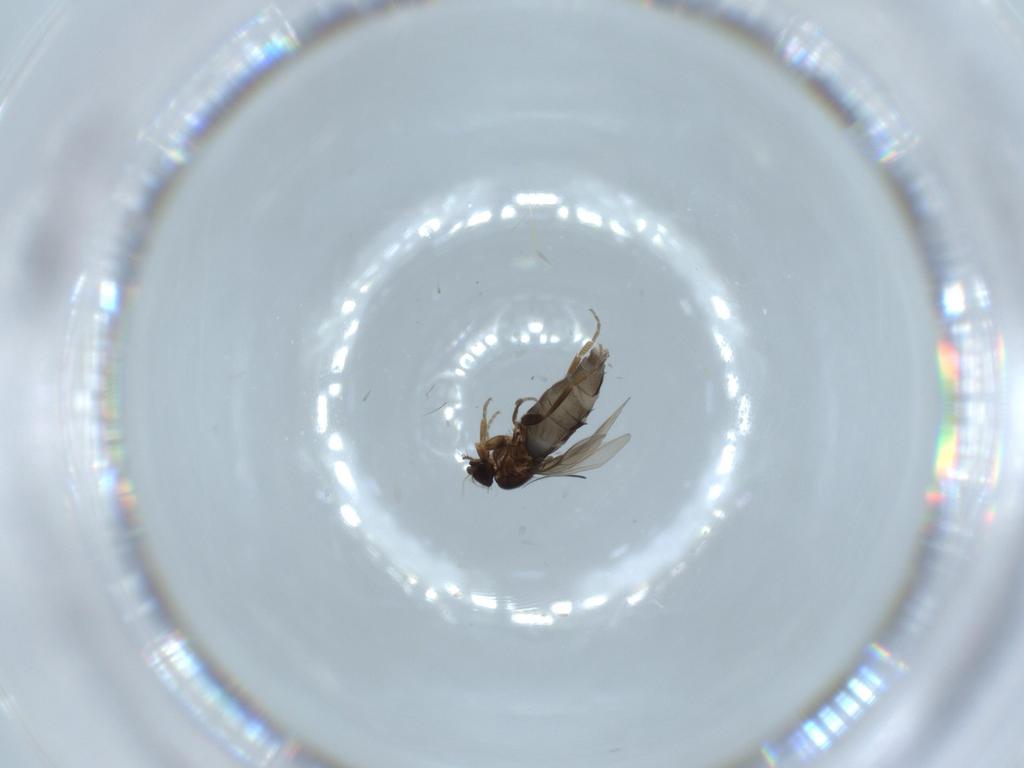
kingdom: Animalia
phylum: Arthropoda
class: Insecta
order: Diptera
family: Phoridae
